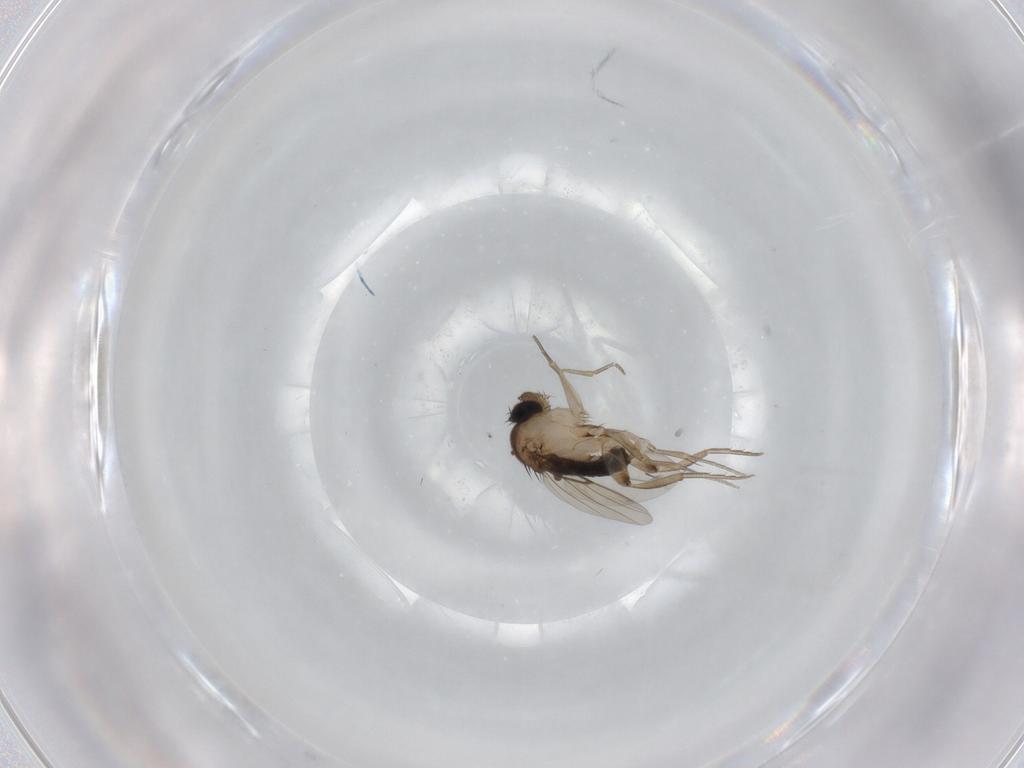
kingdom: Animalia
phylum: Arthropoda
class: Insecta
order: Diptera
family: Phoridae
